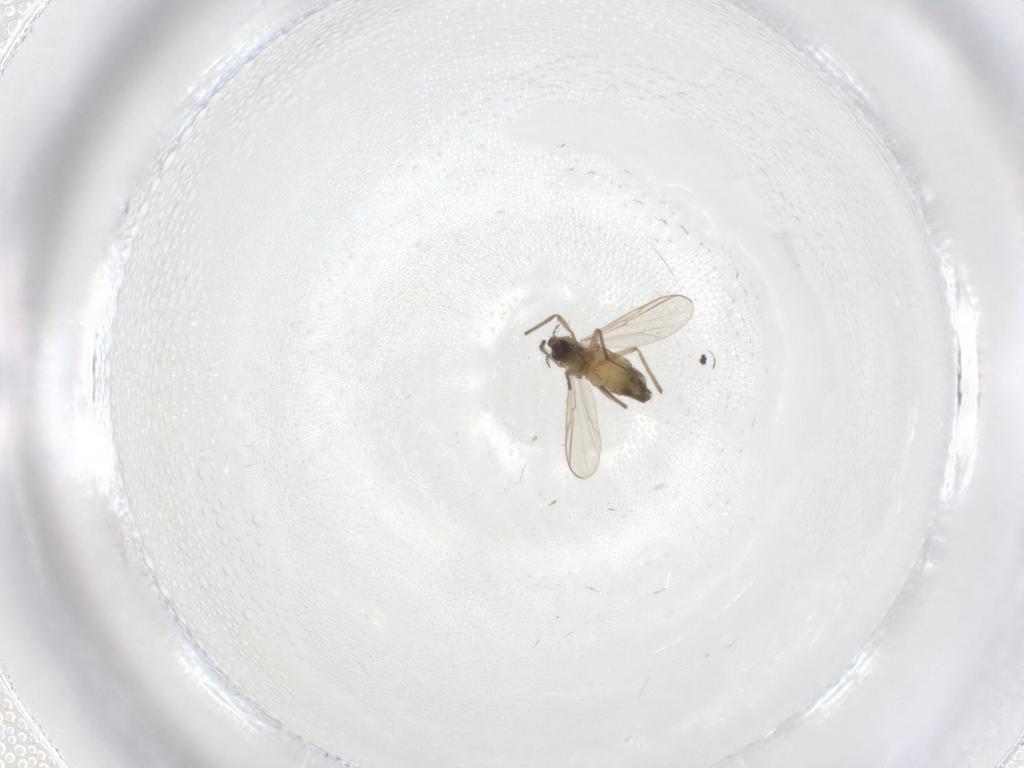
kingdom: Animalia
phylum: Arthropoda
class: Insecta
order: Diptera
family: Chironomidae
